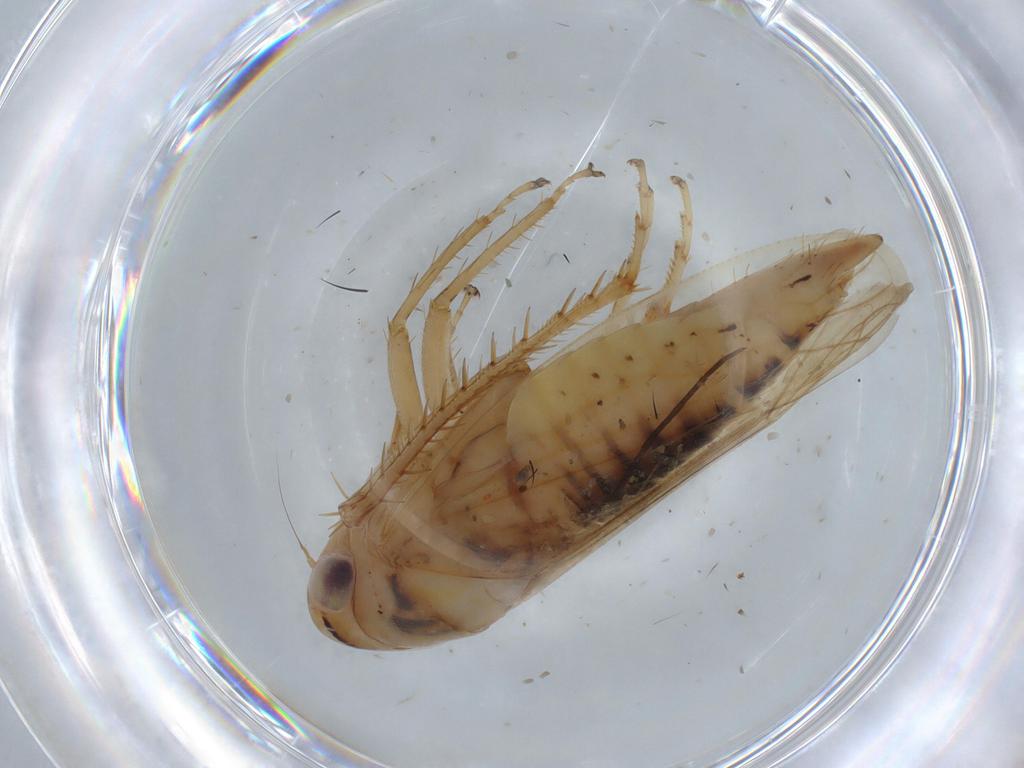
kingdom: Animalia
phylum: Arthropoda
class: Insecta
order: Hemiptera
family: Cicadellidae
